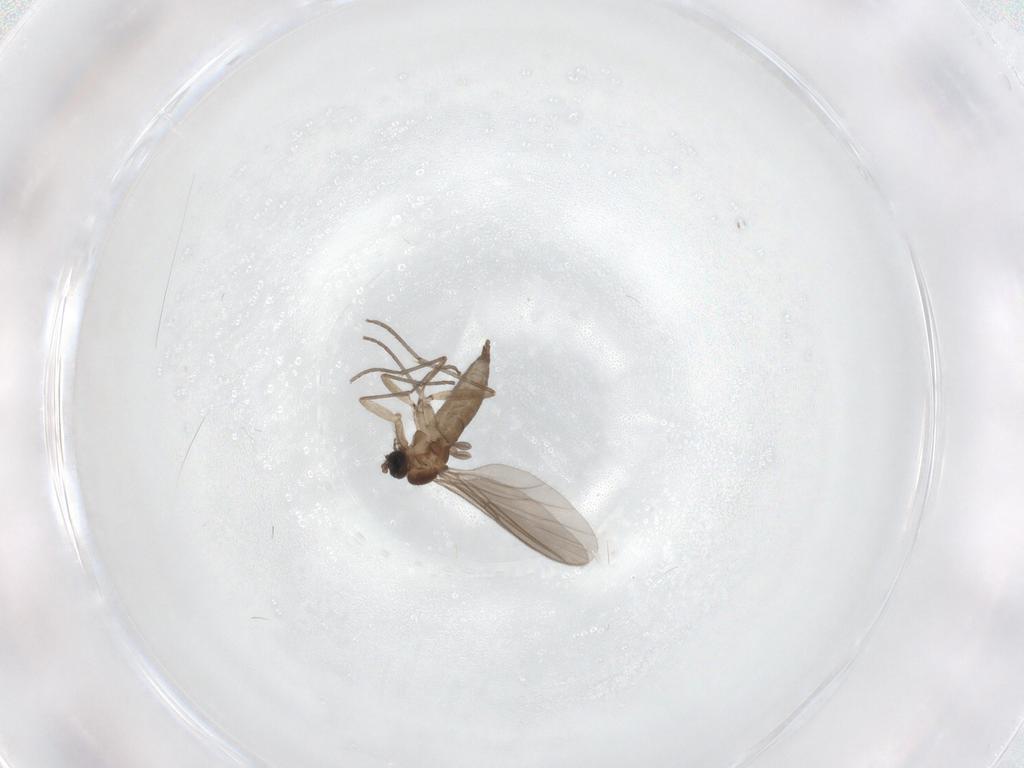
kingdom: Animalia
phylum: Arthropoda
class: Insecta
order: Diptera
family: Sciaridae
